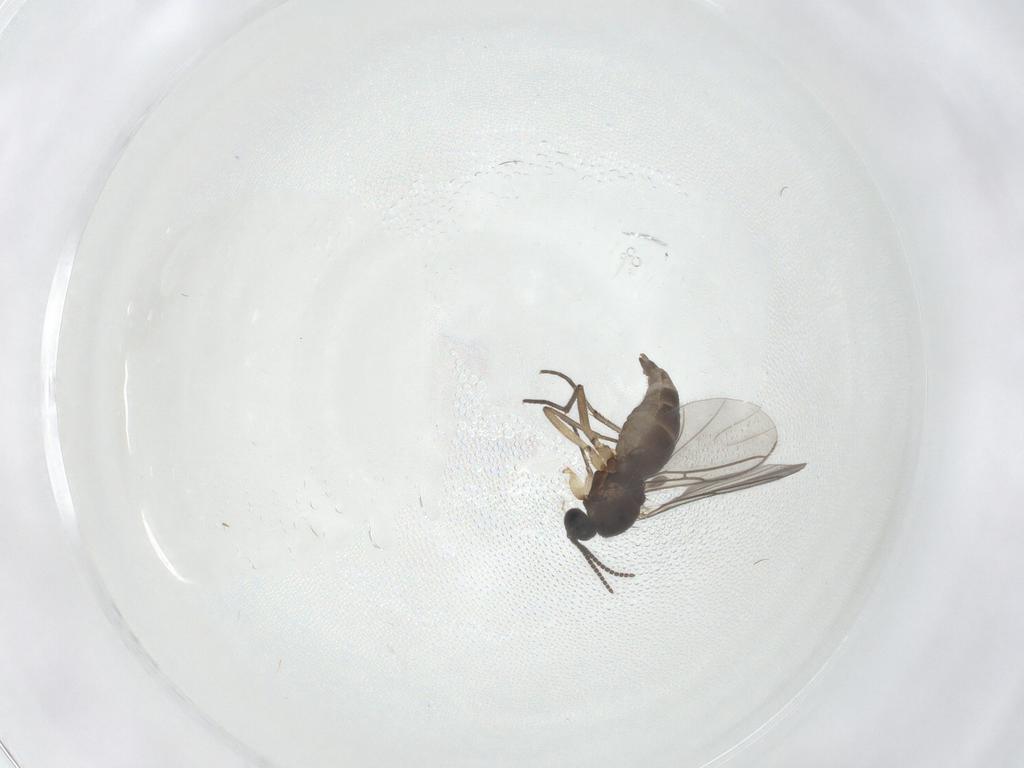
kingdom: Animalia
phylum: Arthropoda
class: Insecta
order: Diptera
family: Sciaridae
